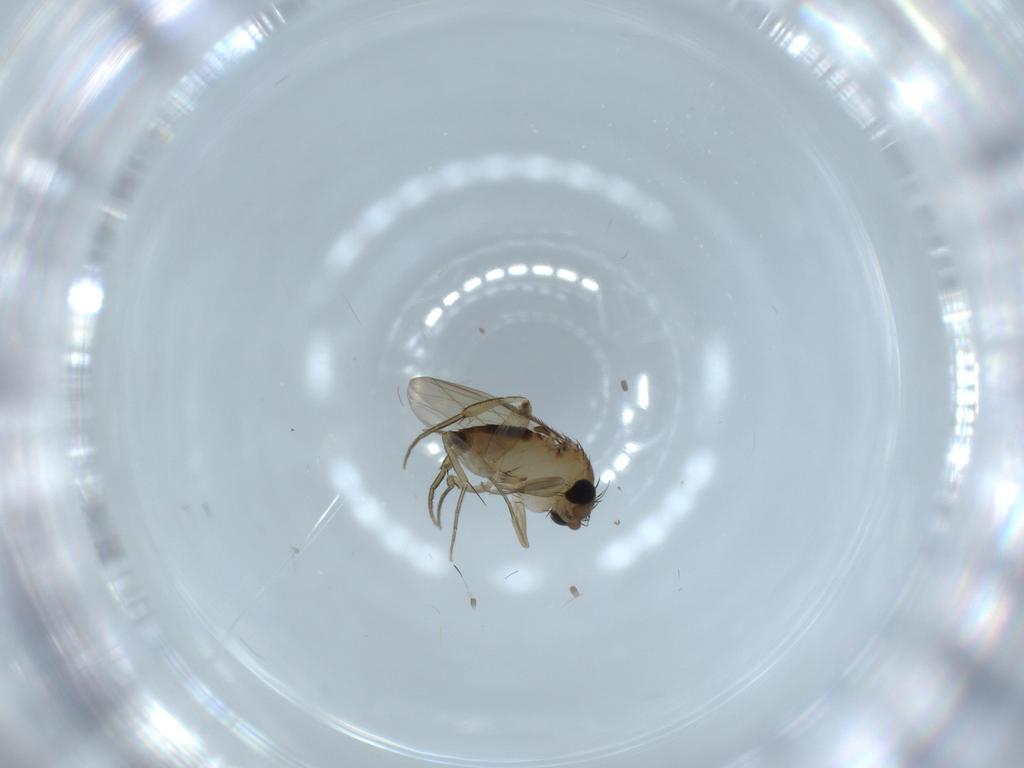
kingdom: Animalia
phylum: Arthropoda
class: Insecta
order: Diptera
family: Phoridae
